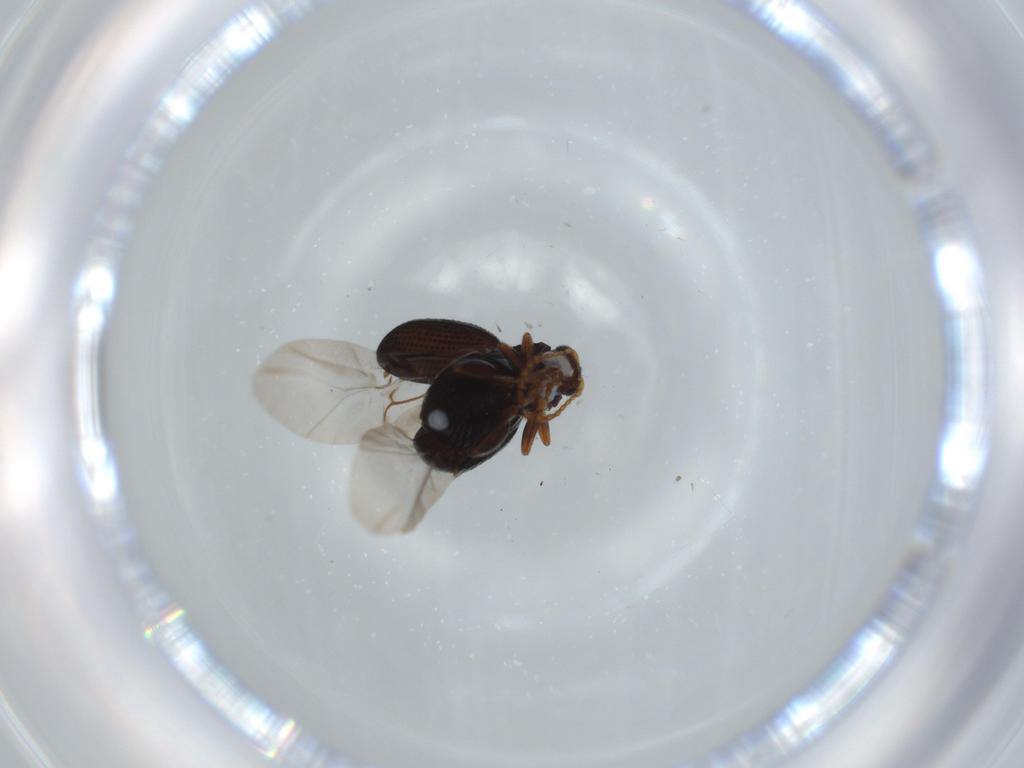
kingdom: Animalia
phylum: Arthropoda
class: Insecta
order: Coleoptera
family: Chrysomelidae
